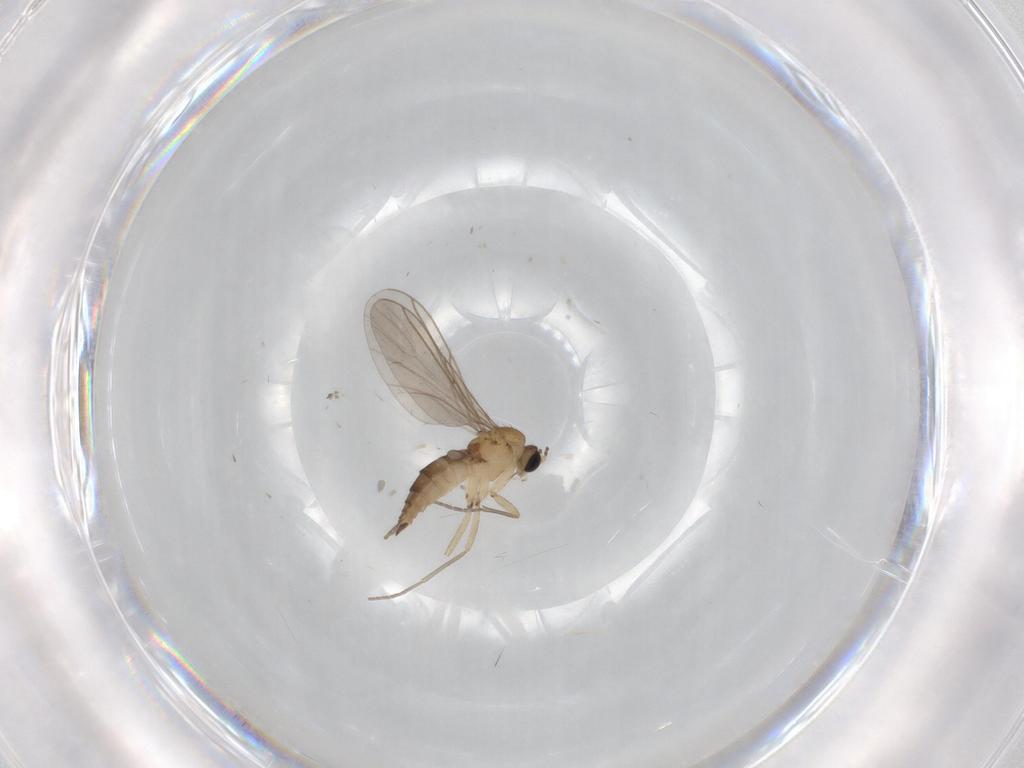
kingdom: Animalia
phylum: Arthropoda
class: Insecta
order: Diptera
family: Sciaridae
